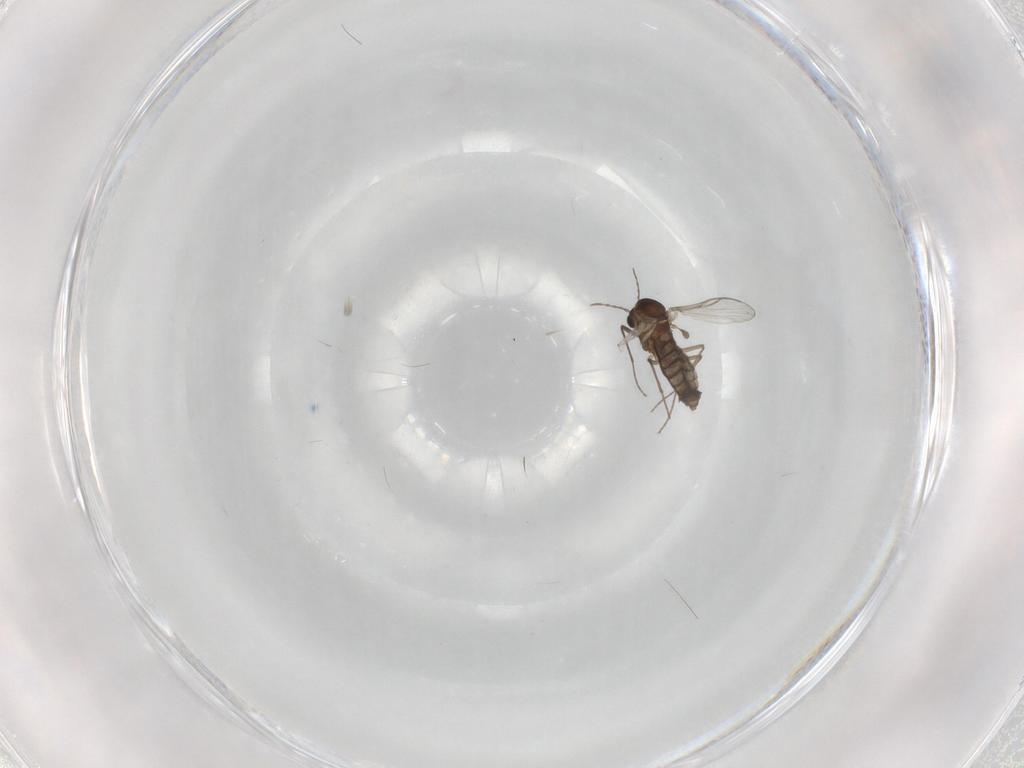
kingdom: Animalia
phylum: Arthropoda
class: Insecta
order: Diptera
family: Chironomidae
